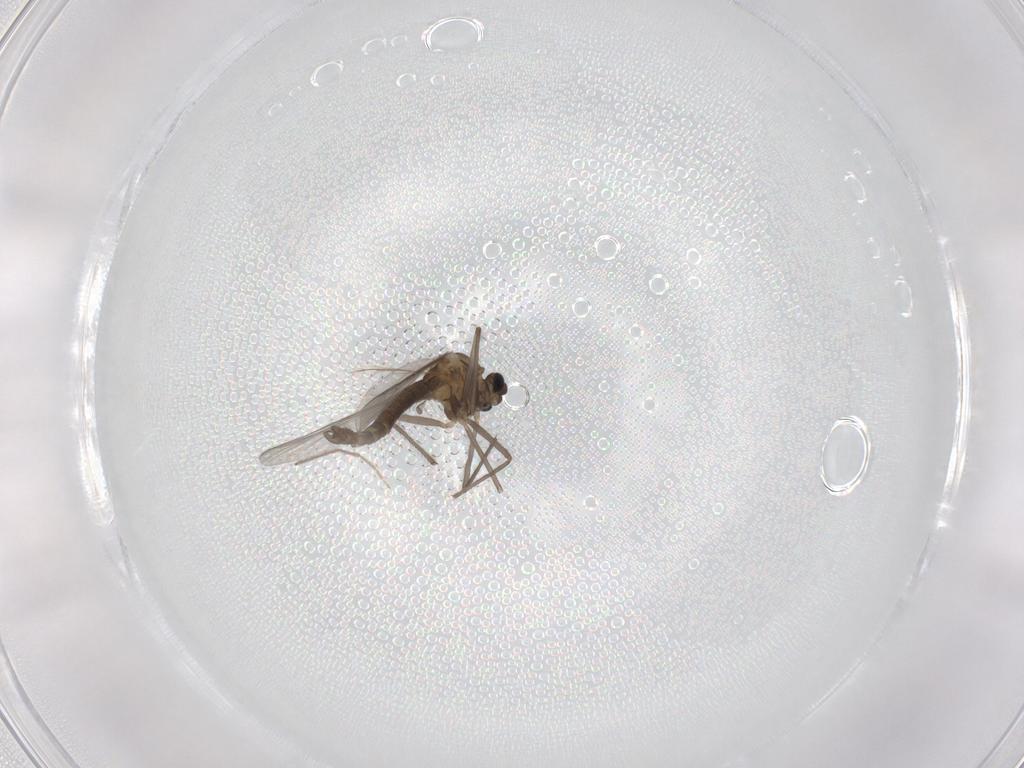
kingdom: Animalia
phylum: Arthropoda
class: Insecta
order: Diptera
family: Chironomidae
